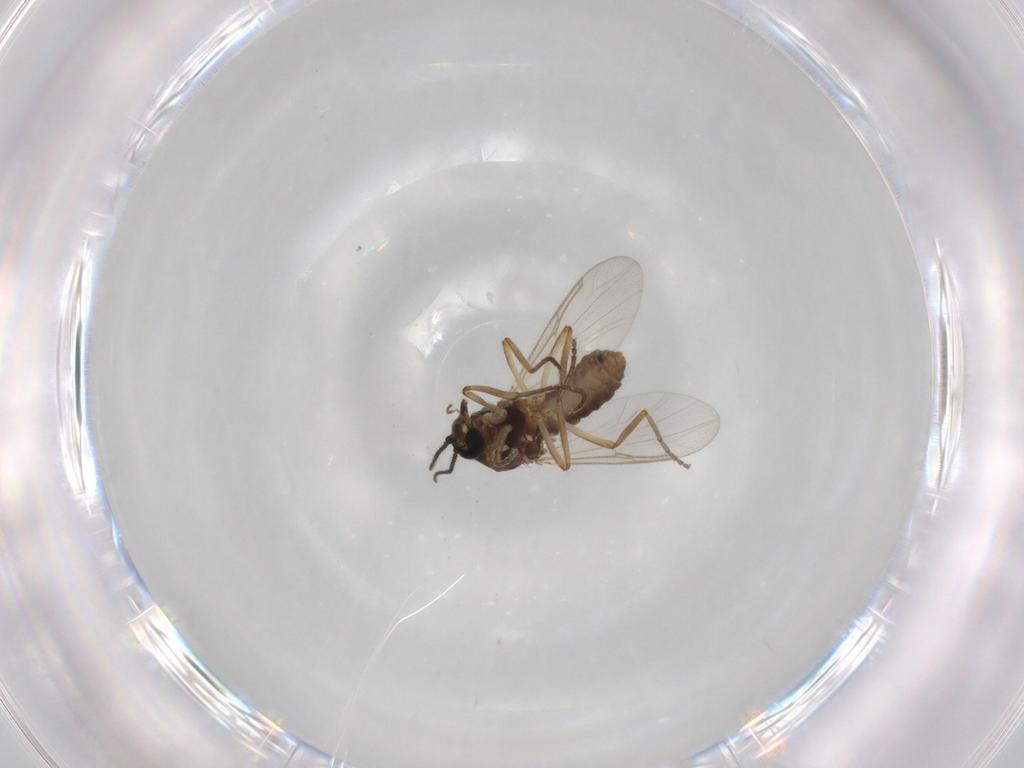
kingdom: Animalia
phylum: Arthropoda
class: Insecta
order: Diptera
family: Ceratopogonidae
